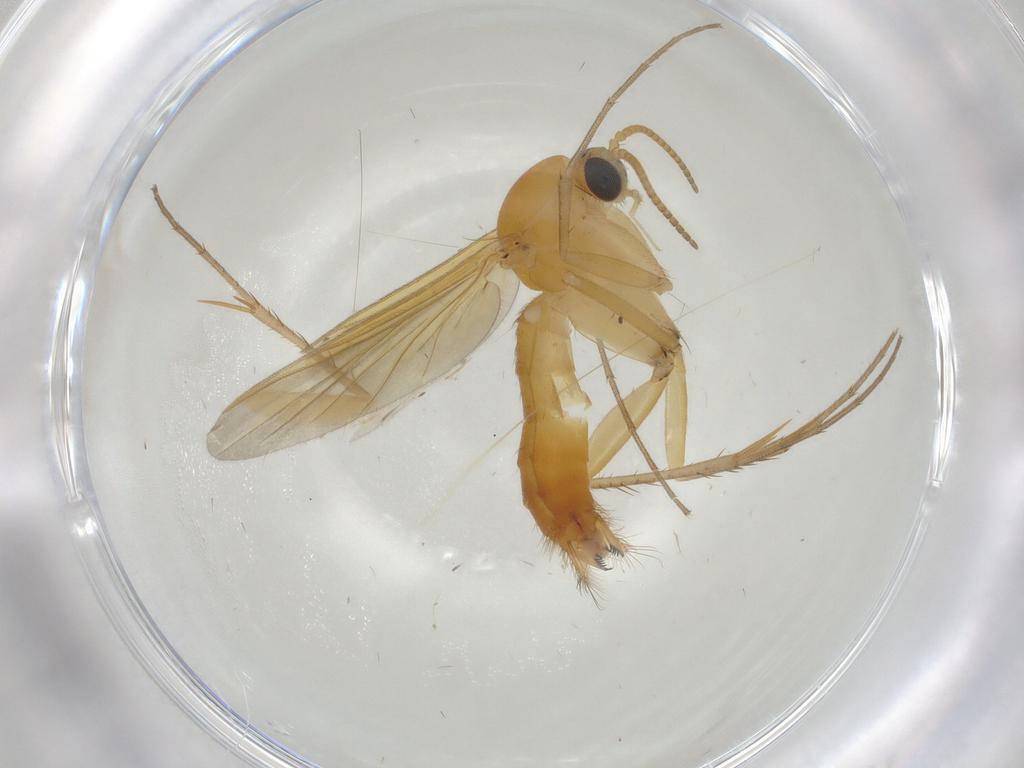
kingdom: Animalia
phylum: Arthropoda
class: Insecta
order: Diptera
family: Mycetophilidae
